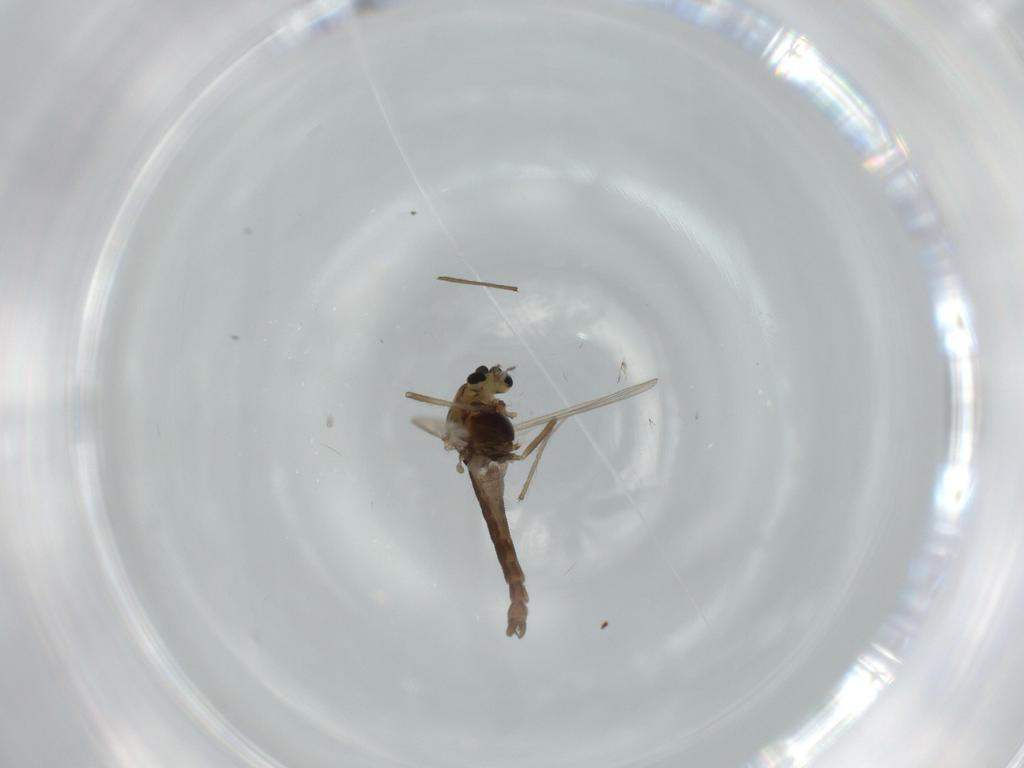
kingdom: Animalia
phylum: Arthropoda
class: Insecta
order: Diptera
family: Chironomidae
